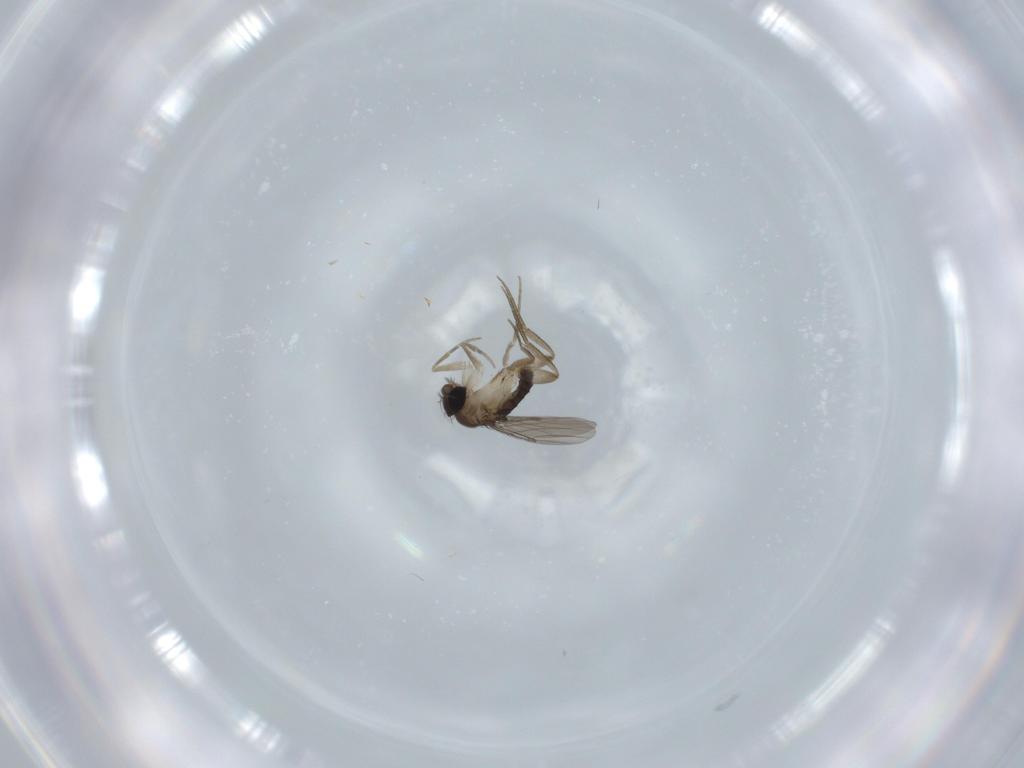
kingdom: Animalia
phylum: Arthropoda
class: Insecta
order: Diptera
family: Phoridae
